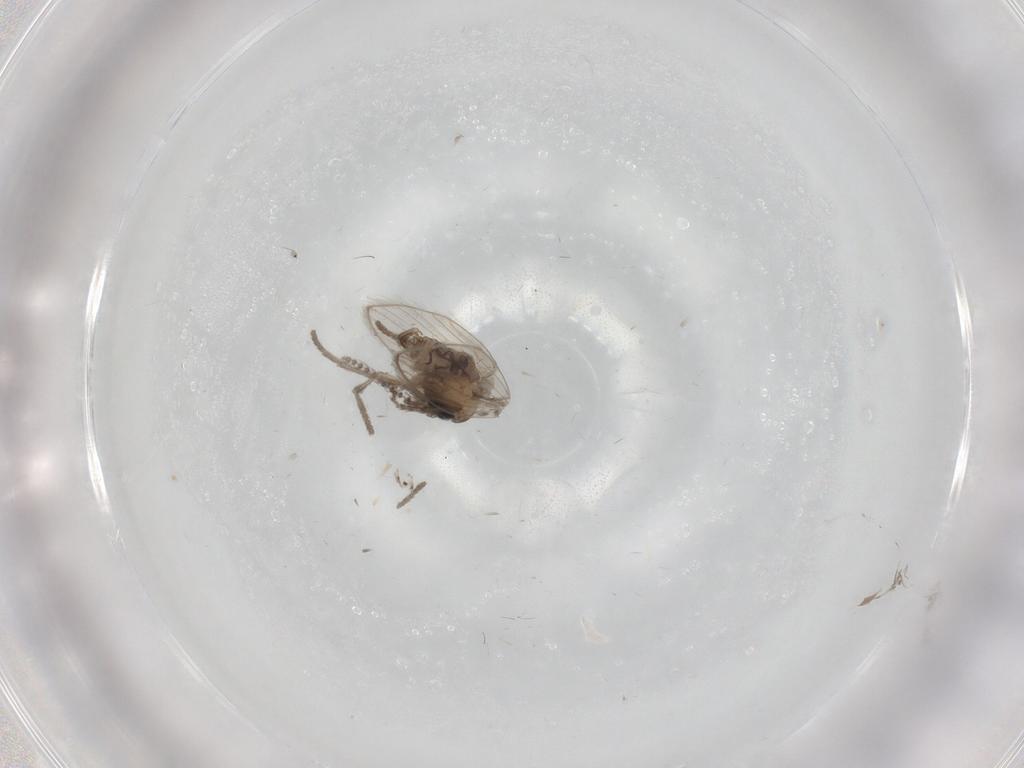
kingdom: Animalia
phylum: Arthropoda
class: Insecta
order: Diptera
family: Psychodidae
